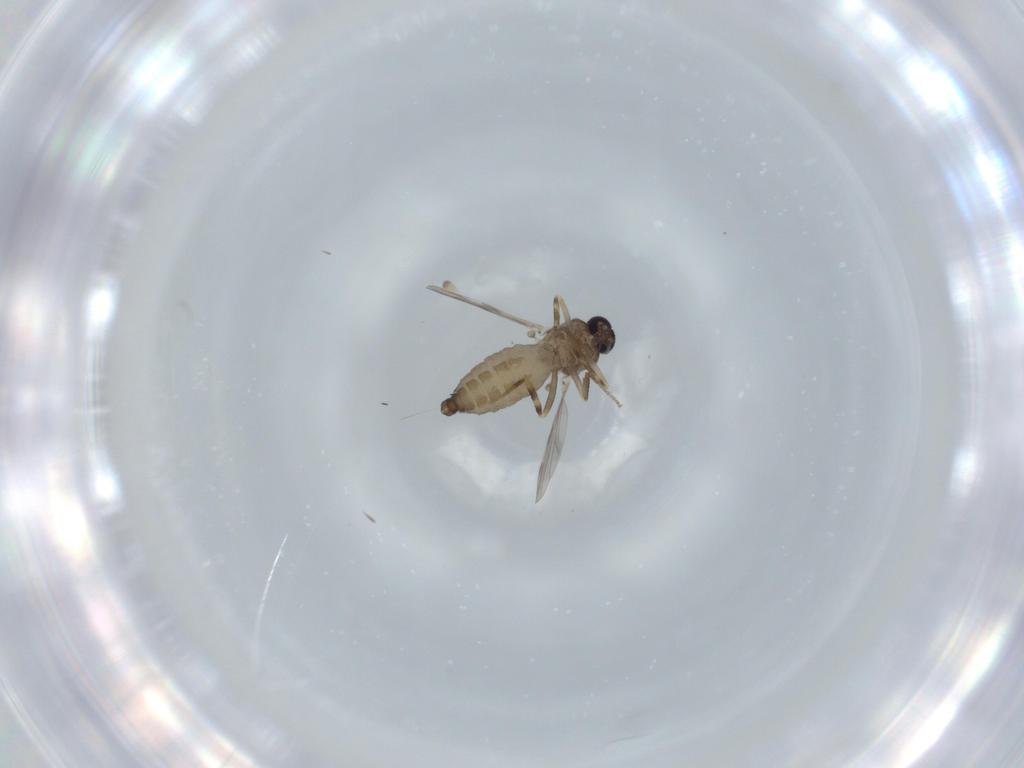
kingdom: Animalia
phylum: Arthropoda
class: Insecta
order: Diptera
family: Ceratopogonidae
